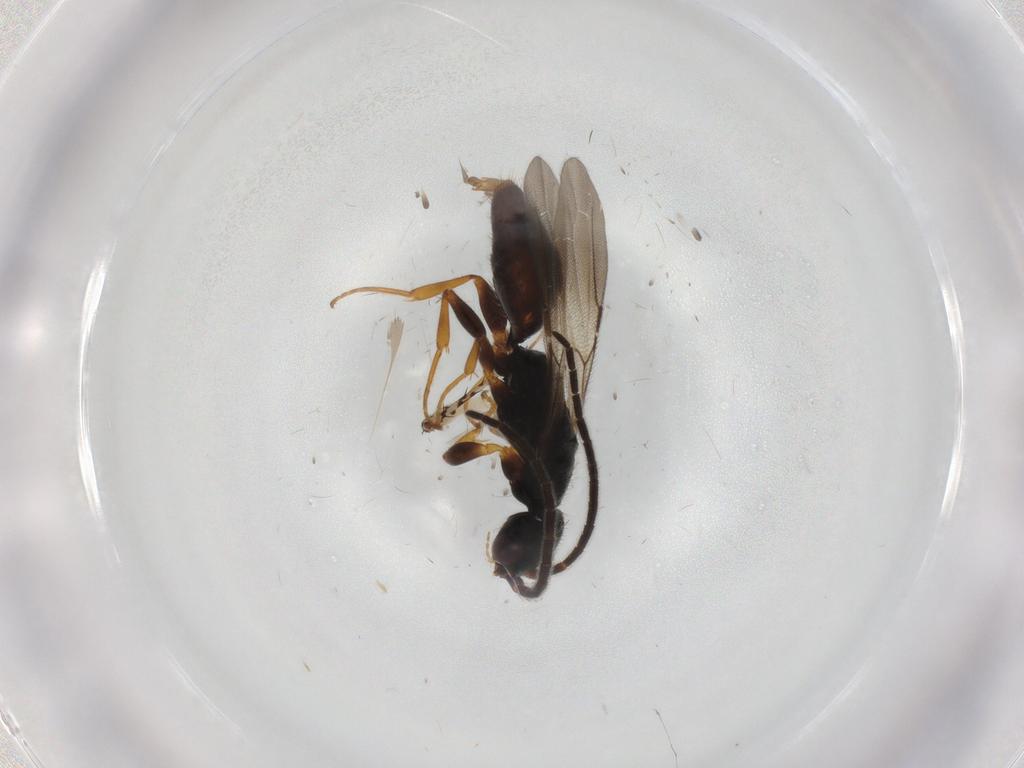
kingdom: Animalia
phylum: Arthropoda
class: Insecta
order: Hymenoptera
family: Bethylidae
